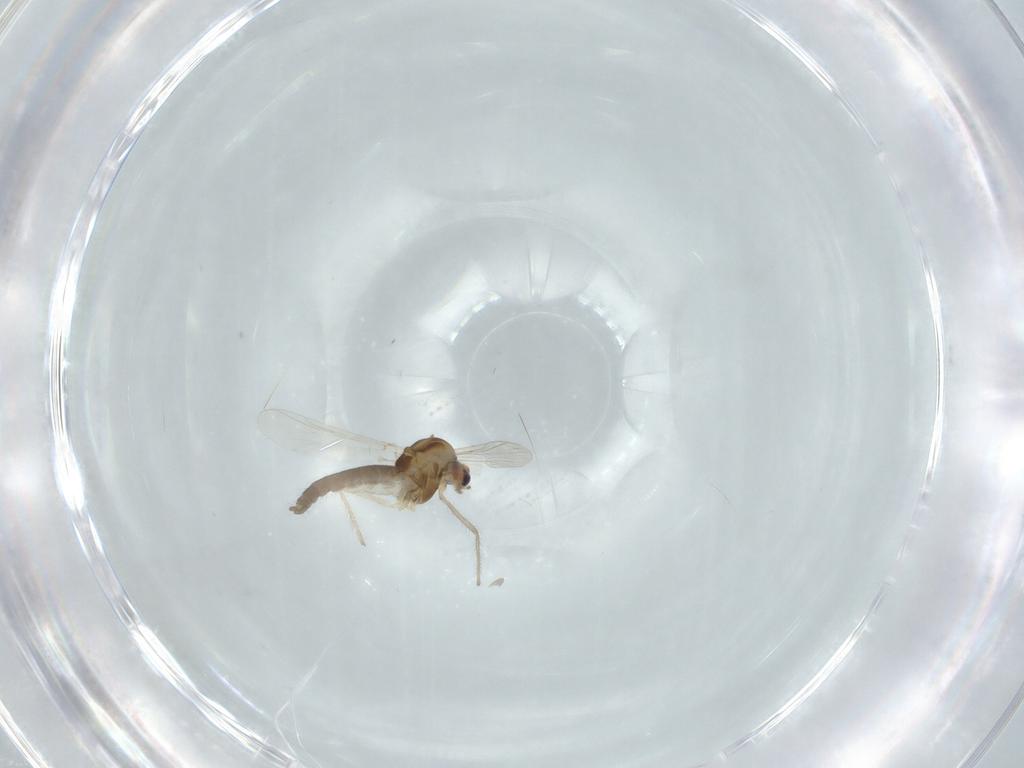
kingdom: Animalia
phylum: Arthropoda
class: Insecta
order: Diptera
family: Chironomidae
